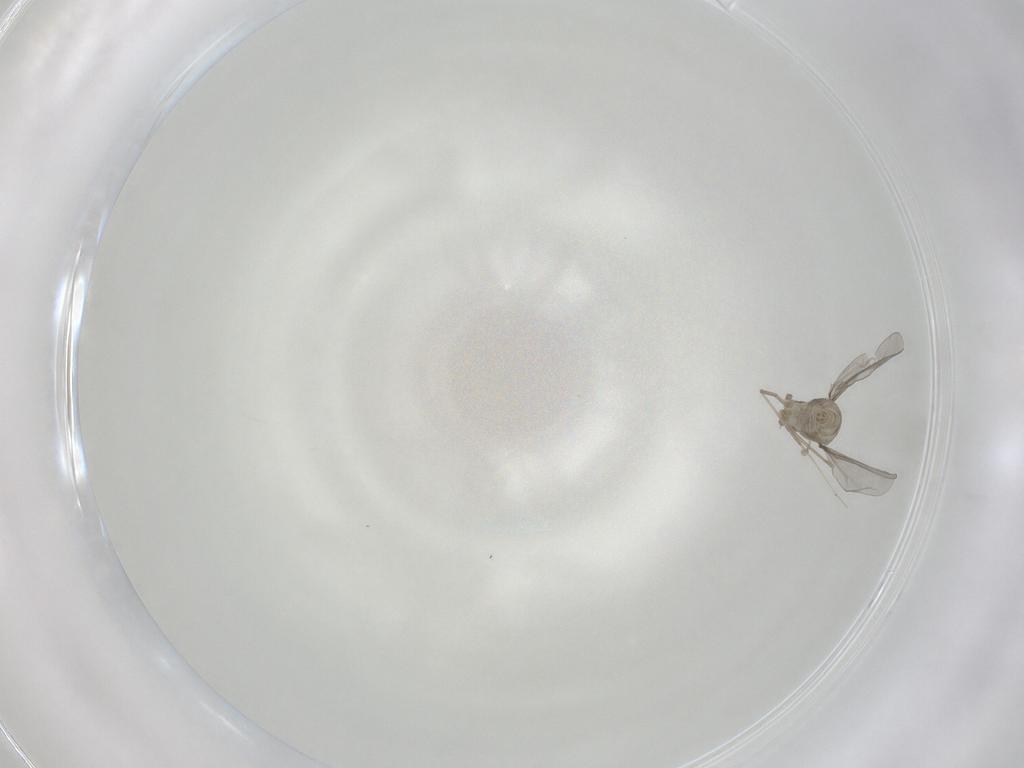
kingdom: Animalia
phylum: Arthropoda
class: Insecta
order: Diptera
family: Cecidomyiidae
